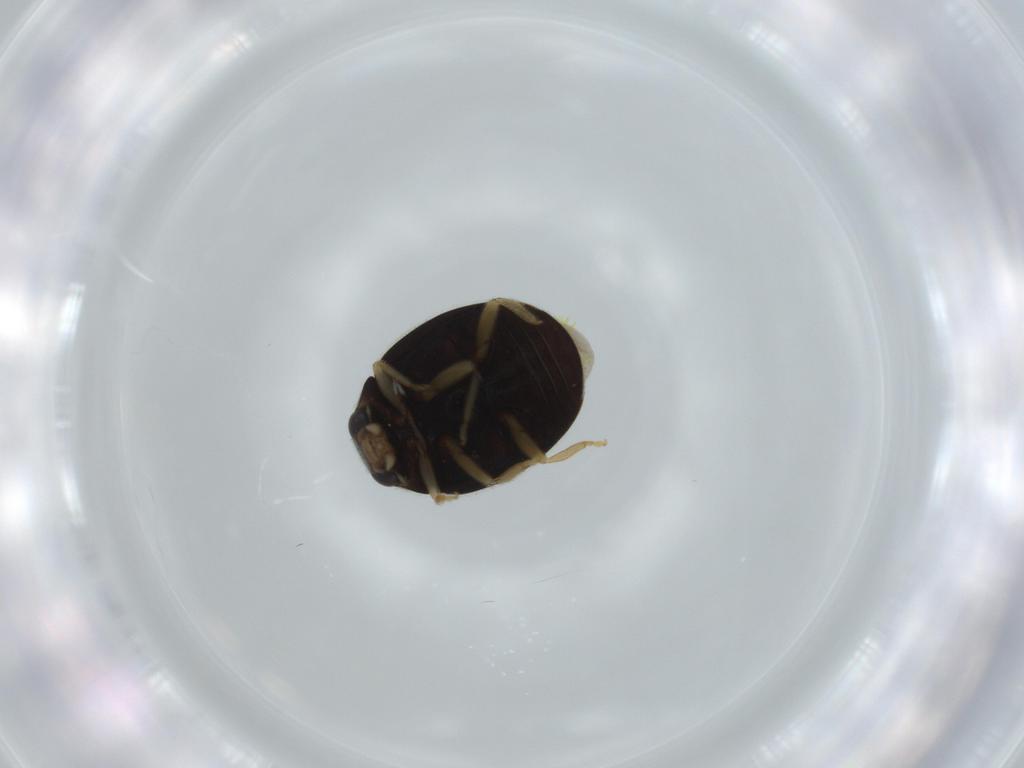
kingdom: Animalia
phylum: Arthropoda
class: Insecta
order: Coleoptera
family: Coccinellidae
